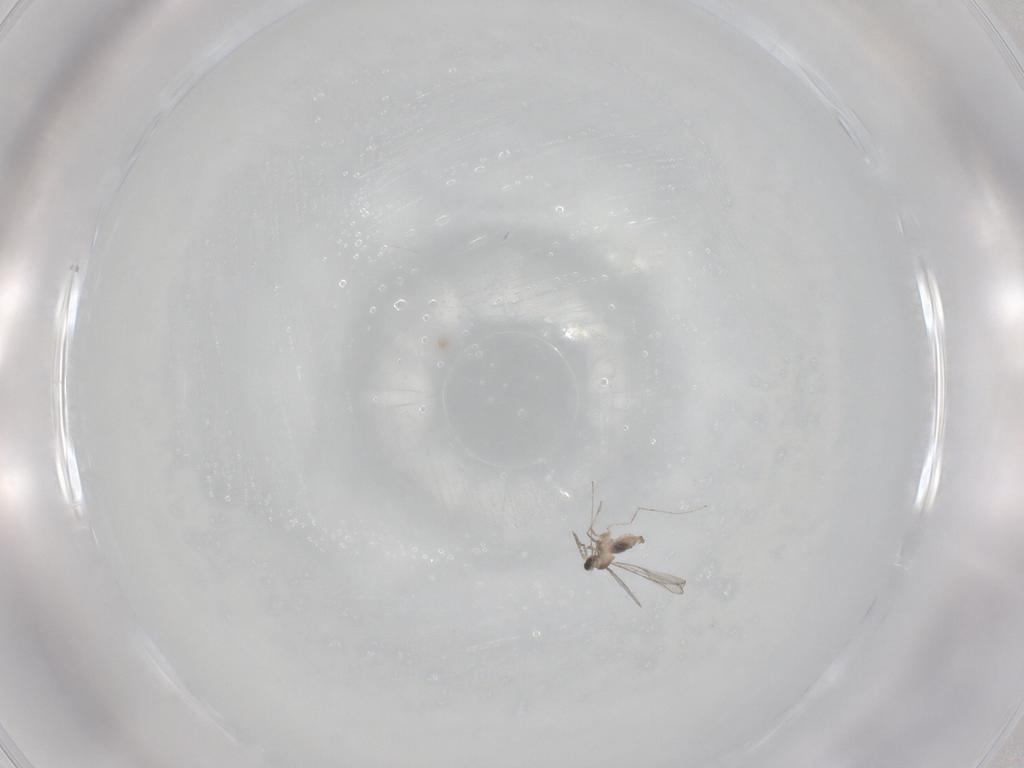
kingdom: Animalia
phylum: Arthropoda
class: Insecta
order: Diptera
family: Cecidomyiidae
